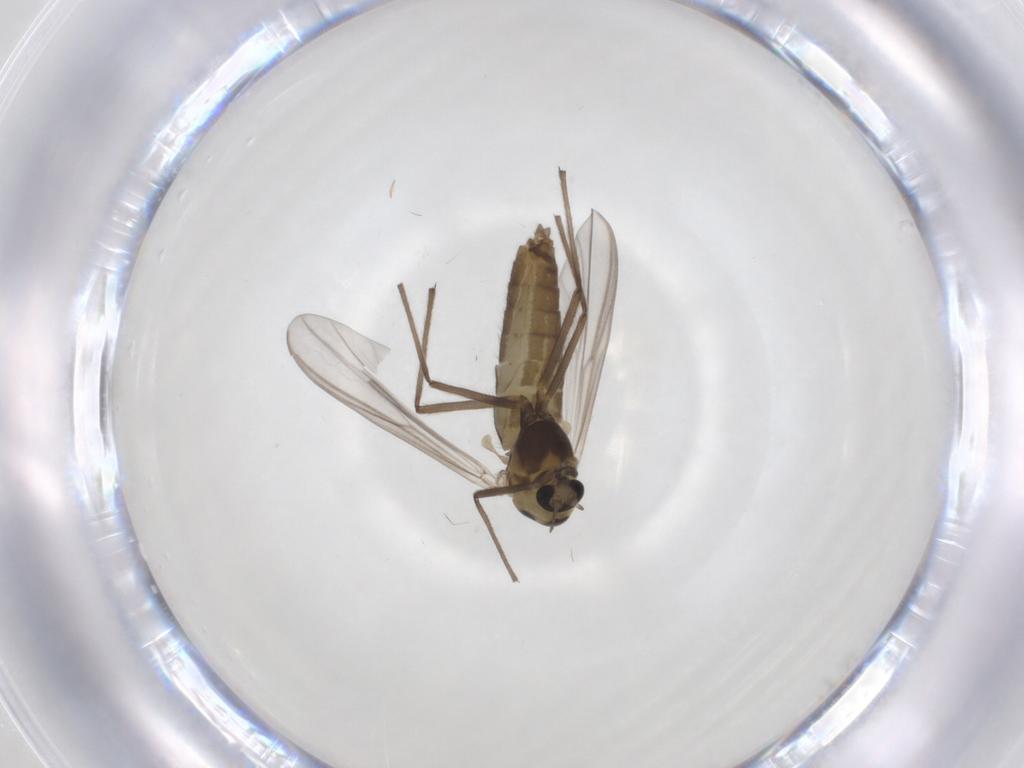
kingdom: Animalia
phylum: Arthropoda
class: Insecta
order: Diptera
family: Chironomidae
